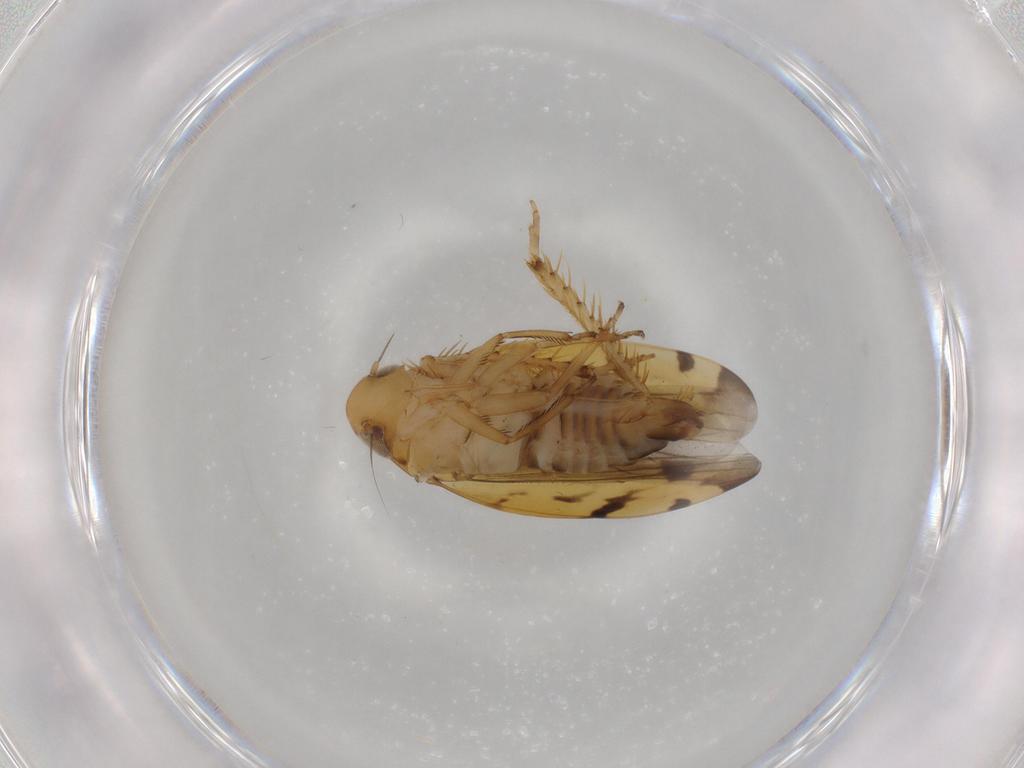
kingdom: Animalia
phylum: Arthropoda
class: Insecta
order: Hemiptera
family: Cicadellidae
